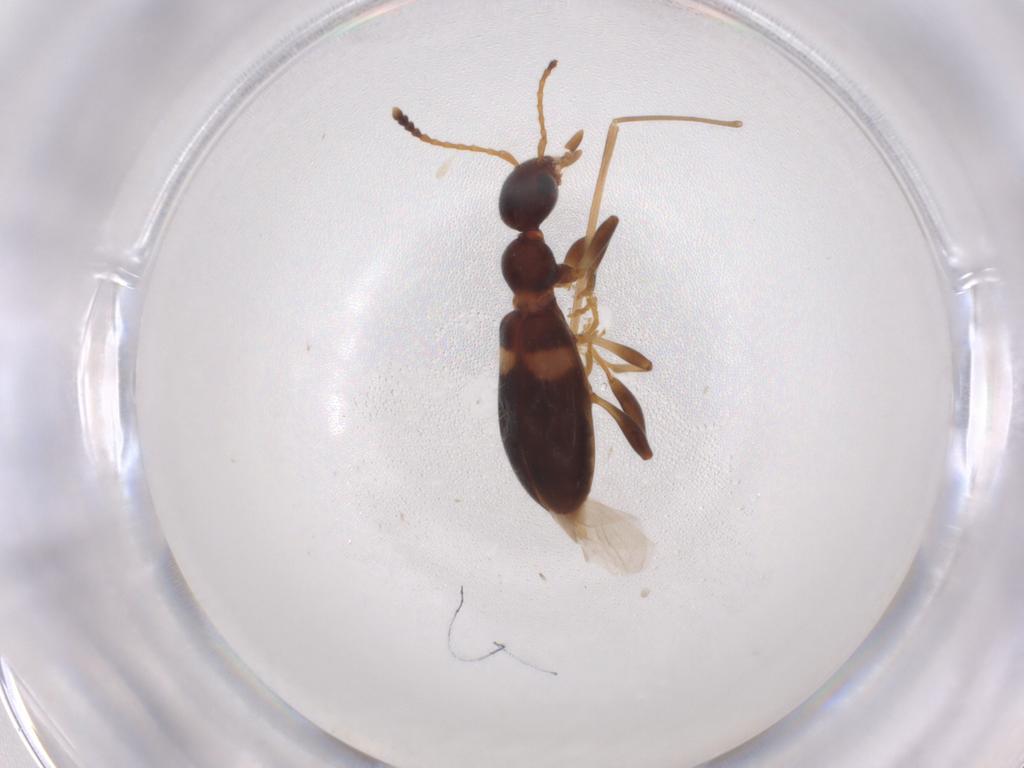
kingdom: Animalia
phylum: Arthropoda
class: Insecta
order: Coleoptera
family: Anthicidae
